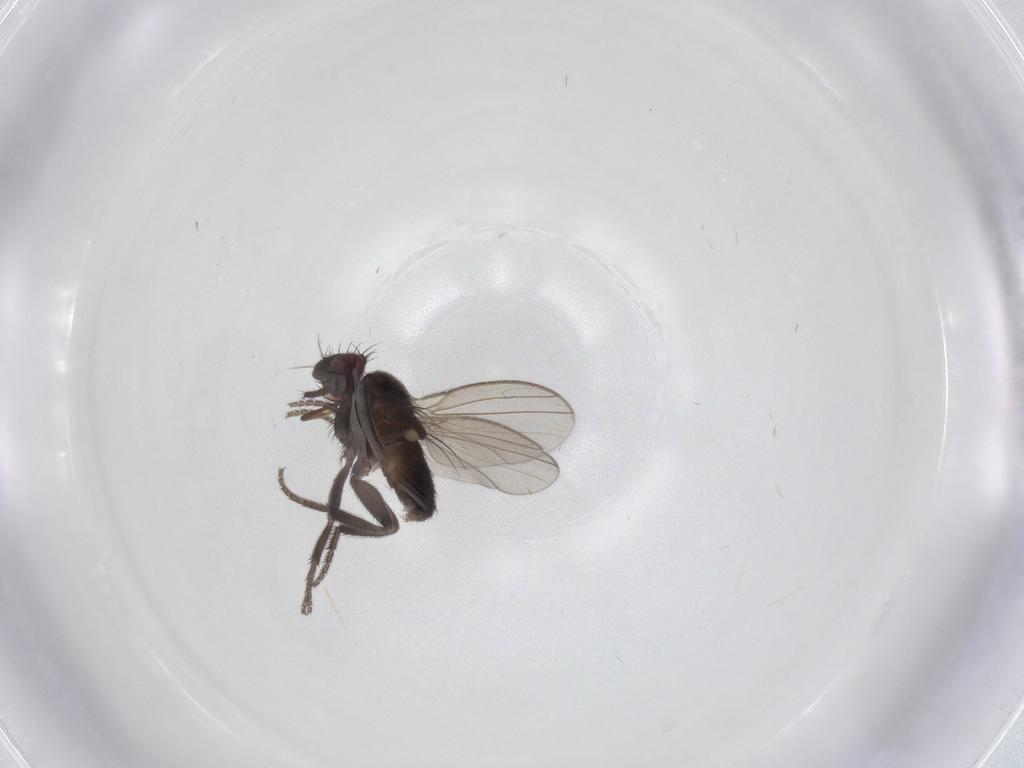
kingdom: Animalia
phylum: Arthropoda
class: Insecta
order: Diptera
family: Milichiidae
